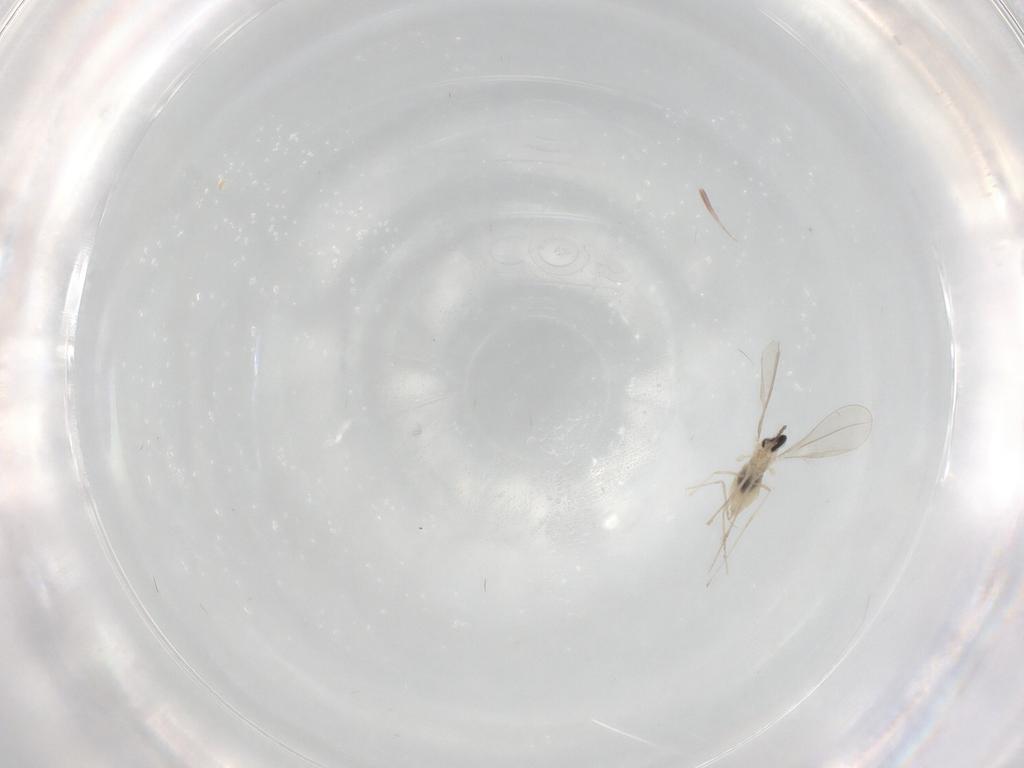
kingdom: Animalia
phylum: Arthropoda
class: Insecta
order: Diptera
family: Cecidomyiidae
